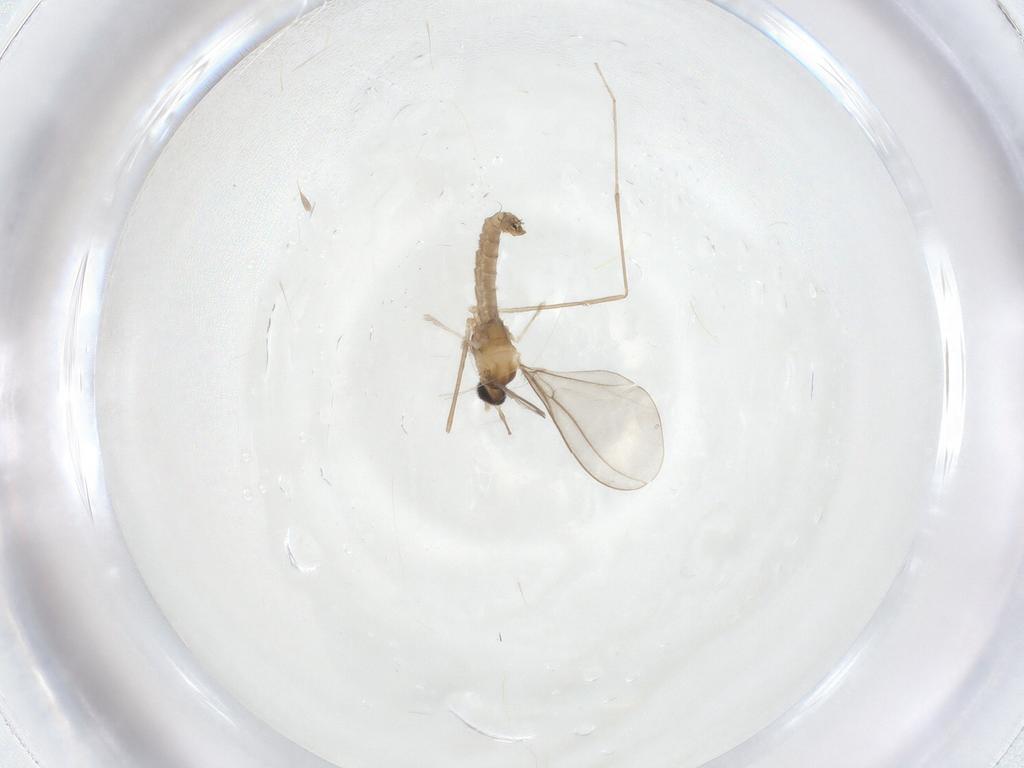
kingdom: Animalia
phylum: Arthropoda
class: Insecta
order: Diptera
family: Cecidomyiidae
